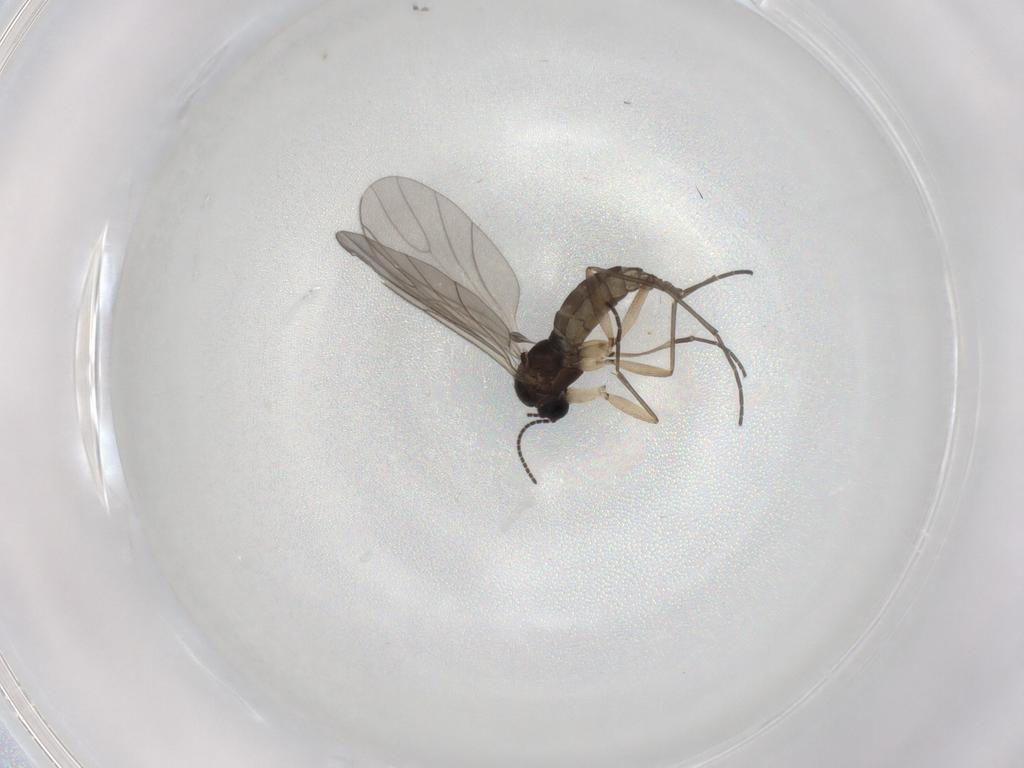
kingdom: Animalia
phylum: Arthropoda
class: Insecta
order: Diptera
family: Sciaridae
